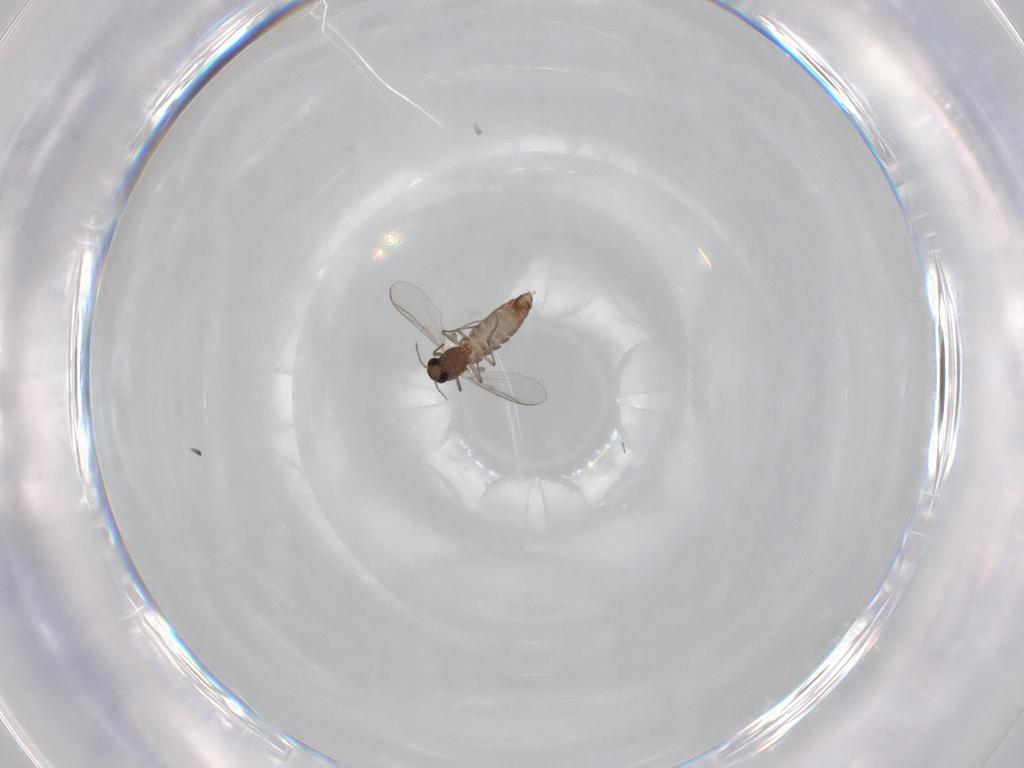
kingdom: Animalia
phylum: Arthropoda
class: Insecta
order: Diptera
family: Chironomidae
